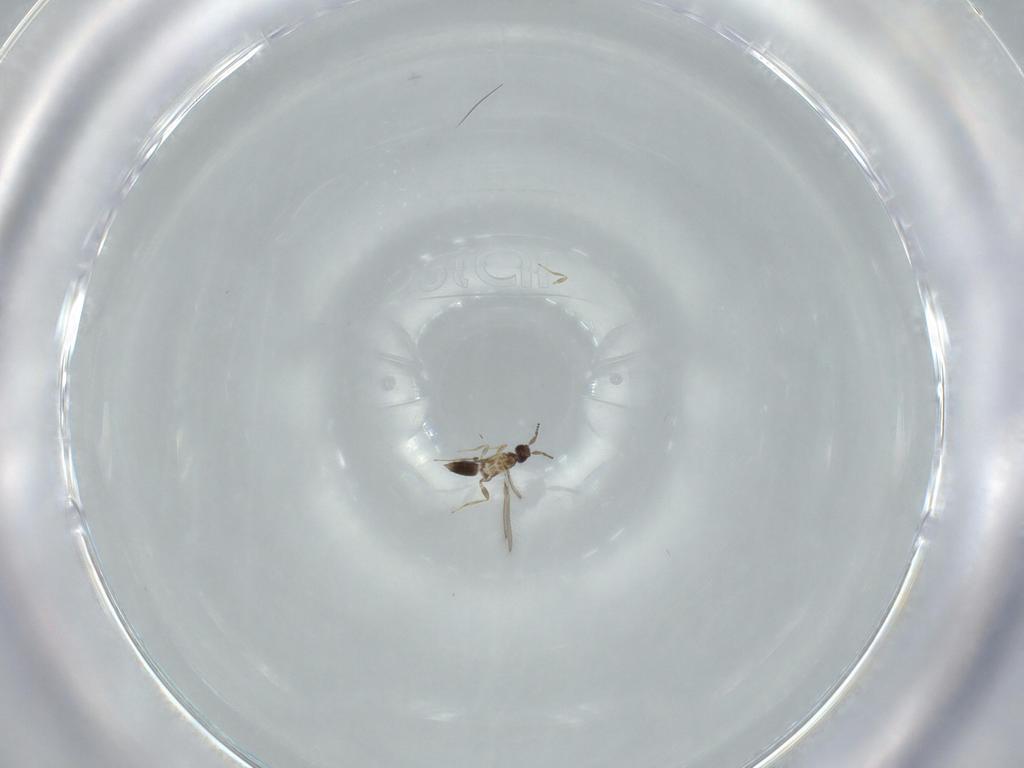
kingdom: Animalia
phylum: Arthropoda
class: Insecta
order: Hymenoptera
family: Mymaridae
